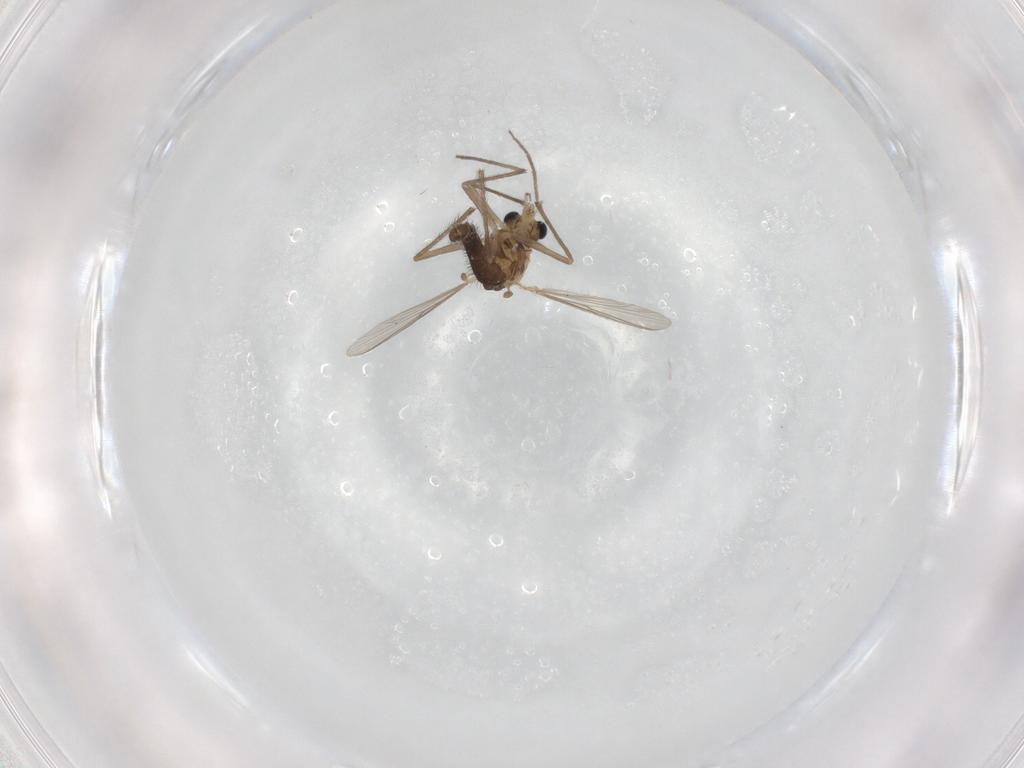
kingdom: Animalia
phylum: Arthropoda
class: Insecta
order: Diptera
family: Chironomidae
